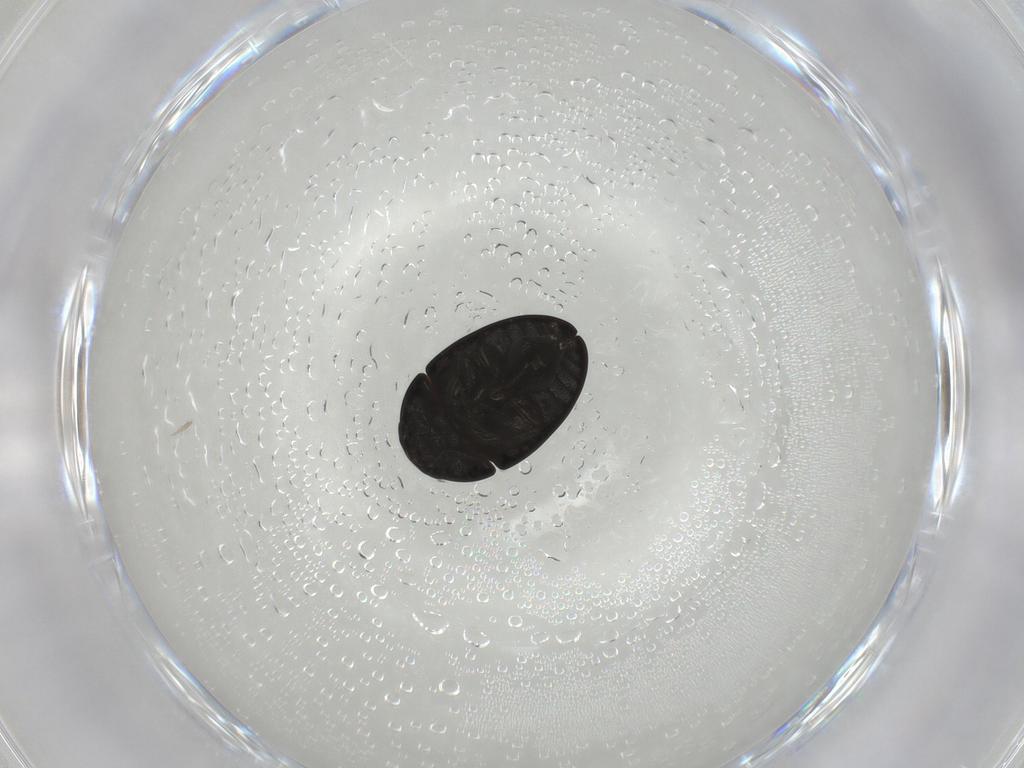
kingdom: Animalia
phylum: Arthropoda
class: Insecta
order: Coleoptera
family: Phalacridae
